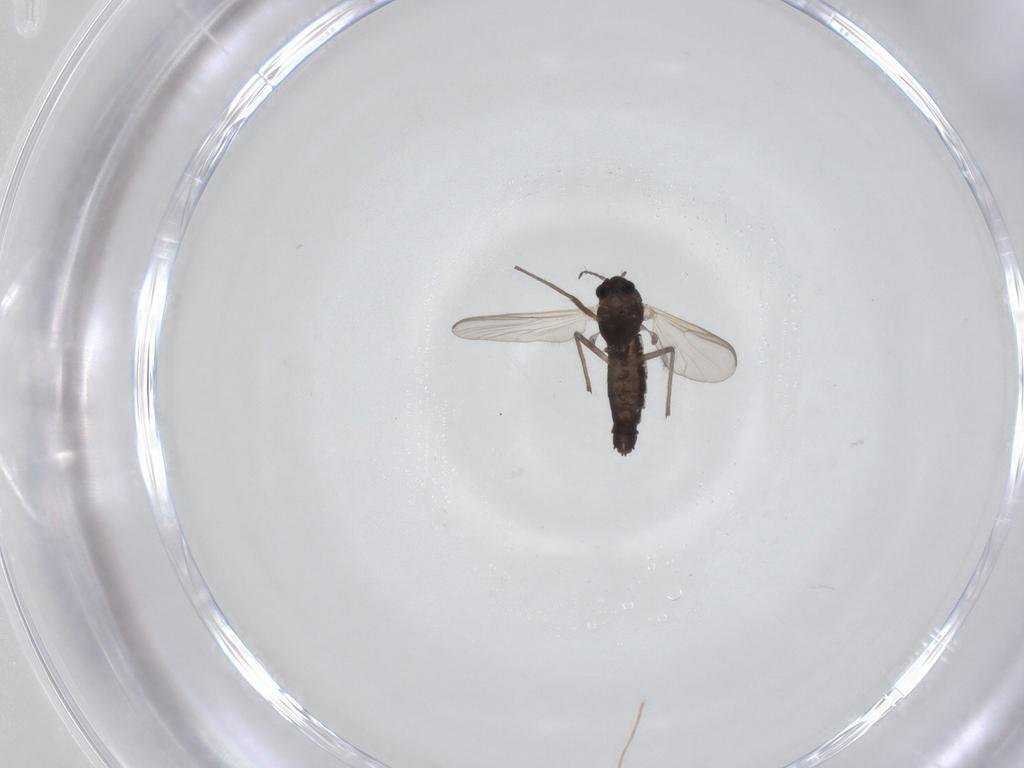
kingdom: Animalia
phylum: Arthropoda
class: Insecta
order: Diptera
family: Chironomidae
